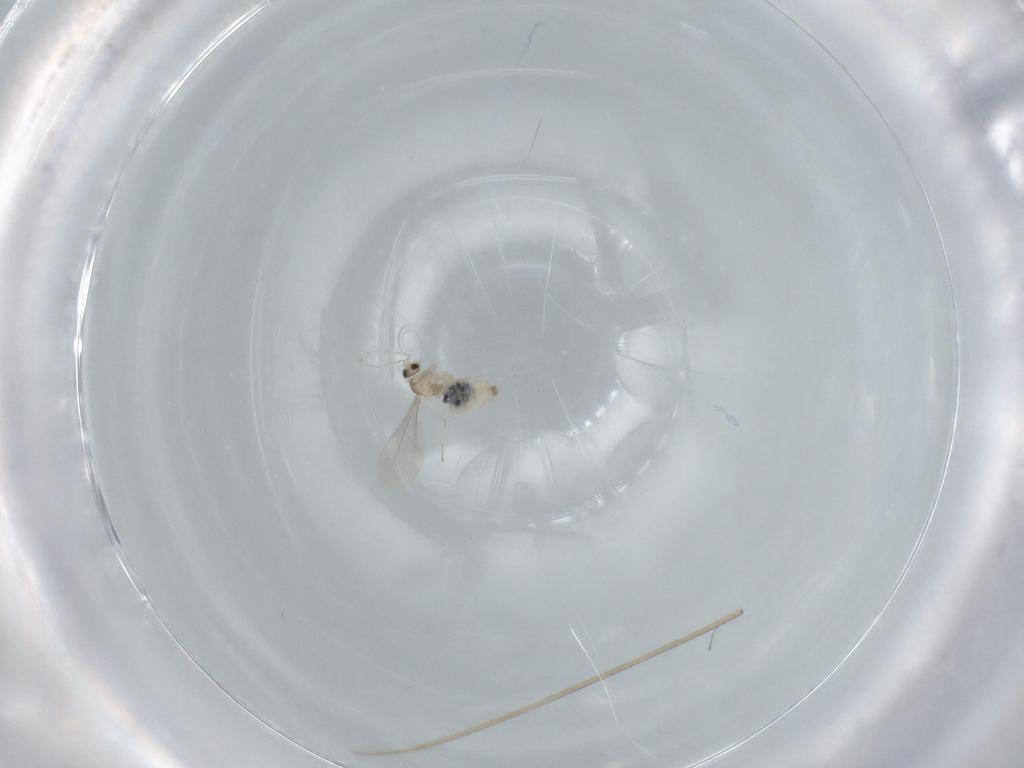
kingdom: Animalia
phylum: Arthropoda
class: Insecta
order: Diptera
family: Cecidomyiidae
